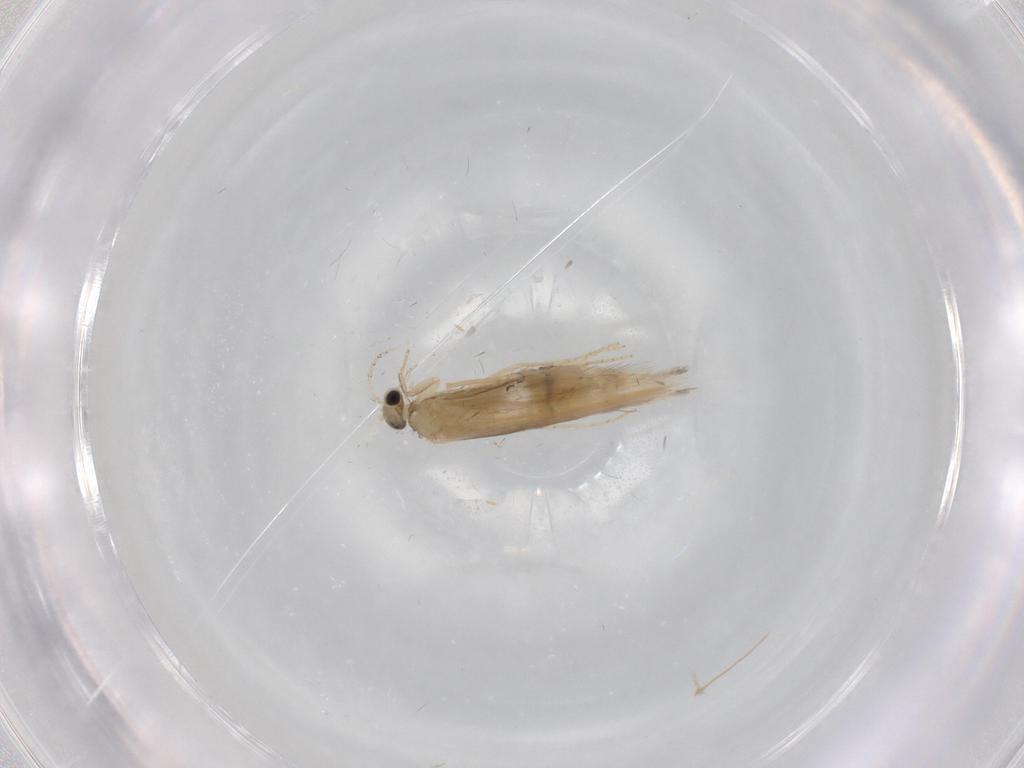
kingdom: Animalia
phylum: Arthropoda
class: Insecta
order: Trichoptera
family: Hydroptilidae
